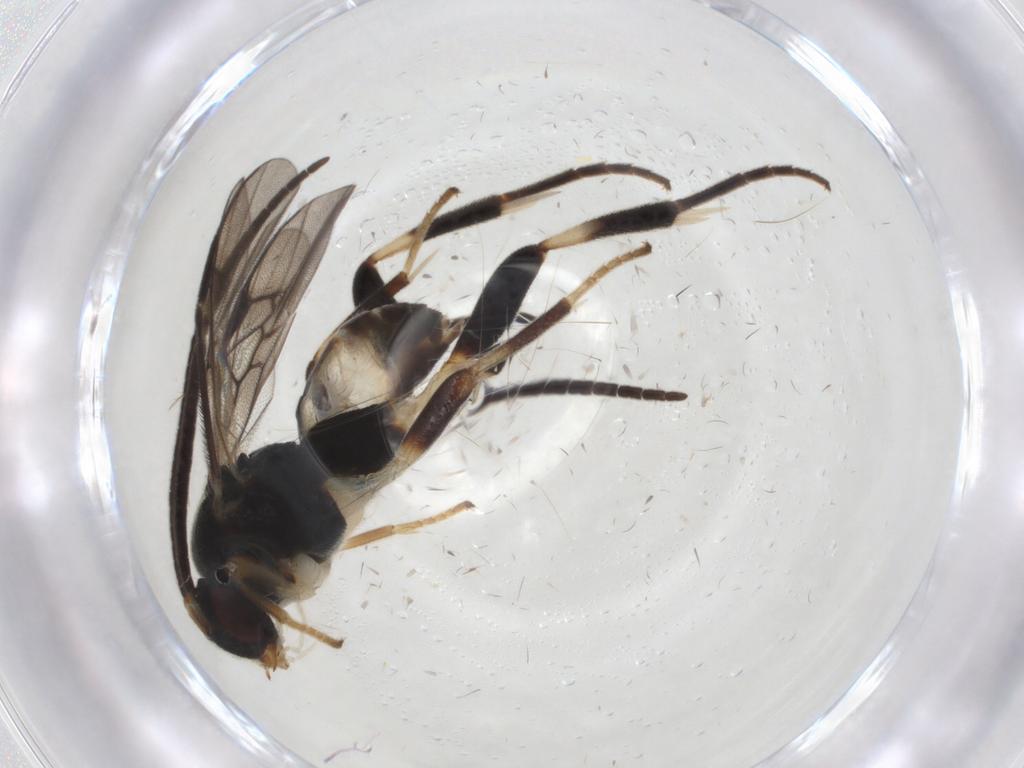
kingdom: Animalia
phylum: Arthropoda
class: Insecta
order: Hymenoptera
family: Braconidae
